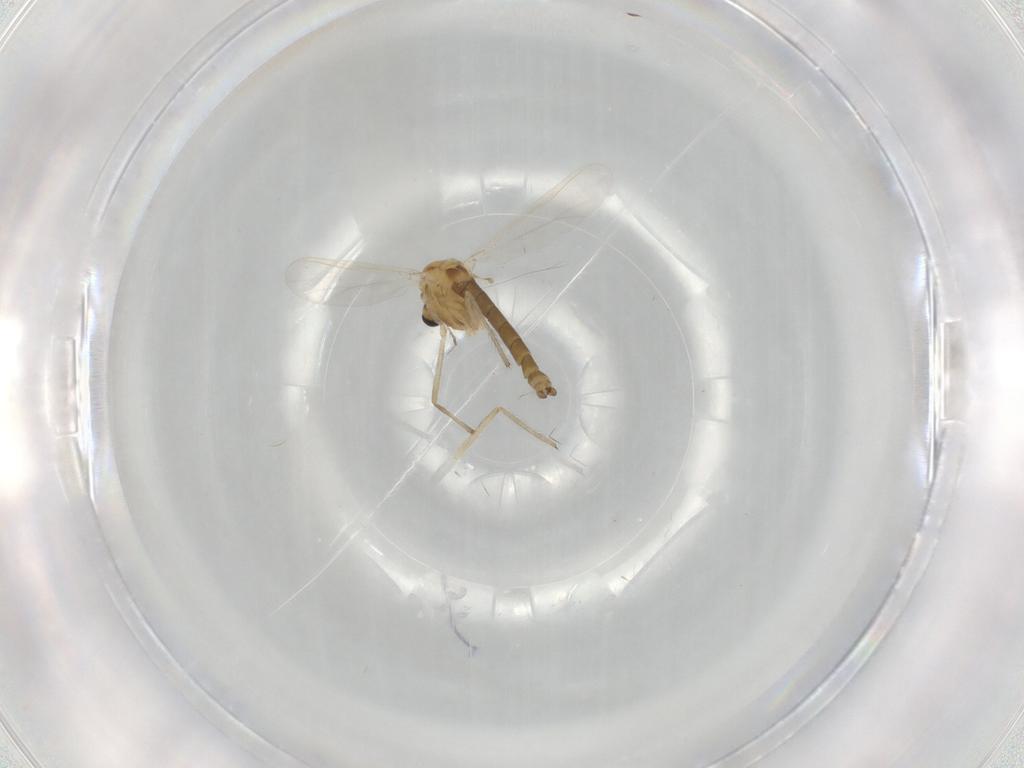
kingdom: Animalia
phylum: Arthropoda
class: Insecta
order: Diptera
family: Chironomidae
